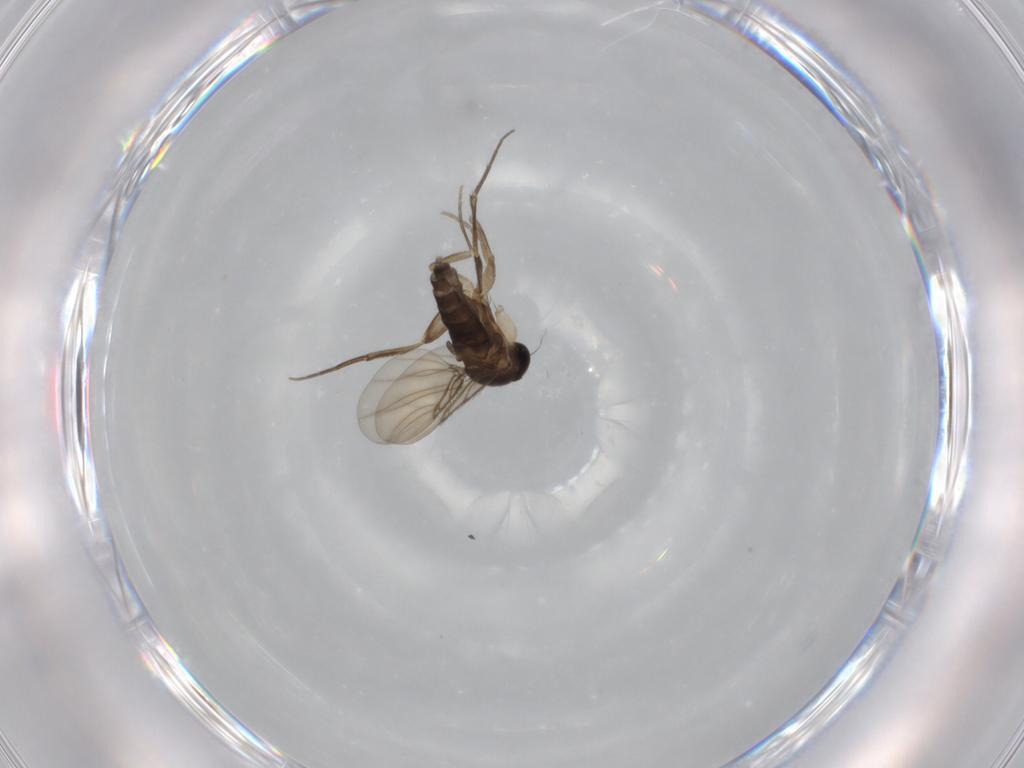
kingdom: Animalia
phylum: Arthropoda
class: Insecta
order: Diptera
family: Phoridae
